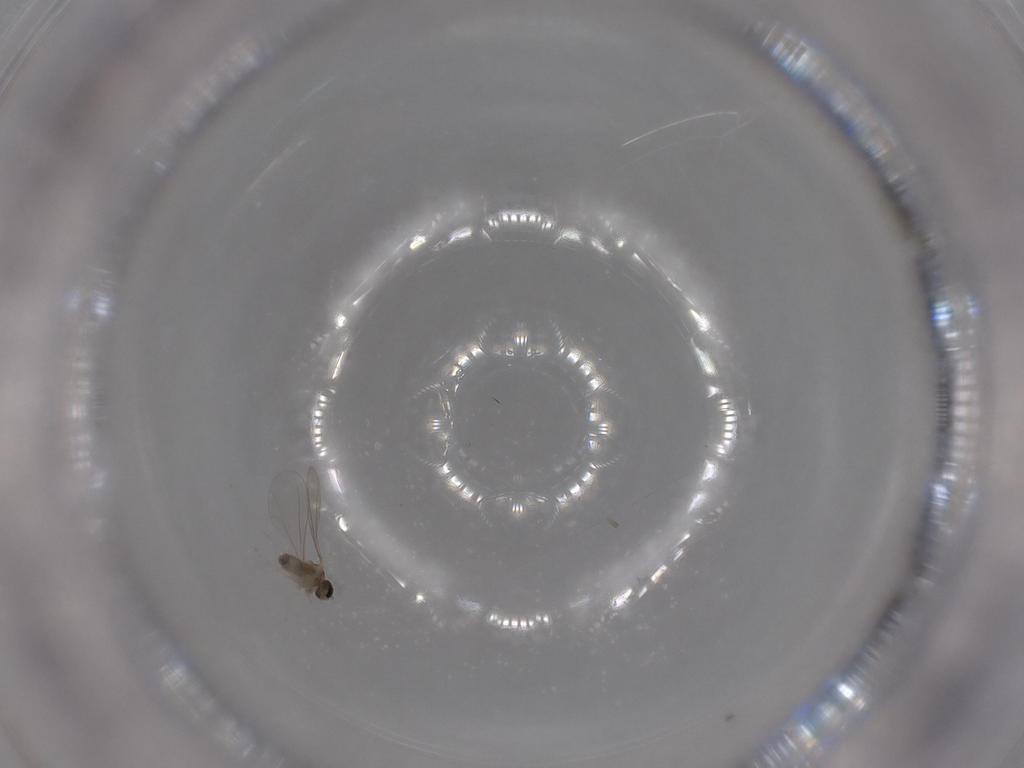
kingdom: Animalia
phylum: Arthropoda
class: Insecta
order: Diptera
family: Cecidomyiidae
